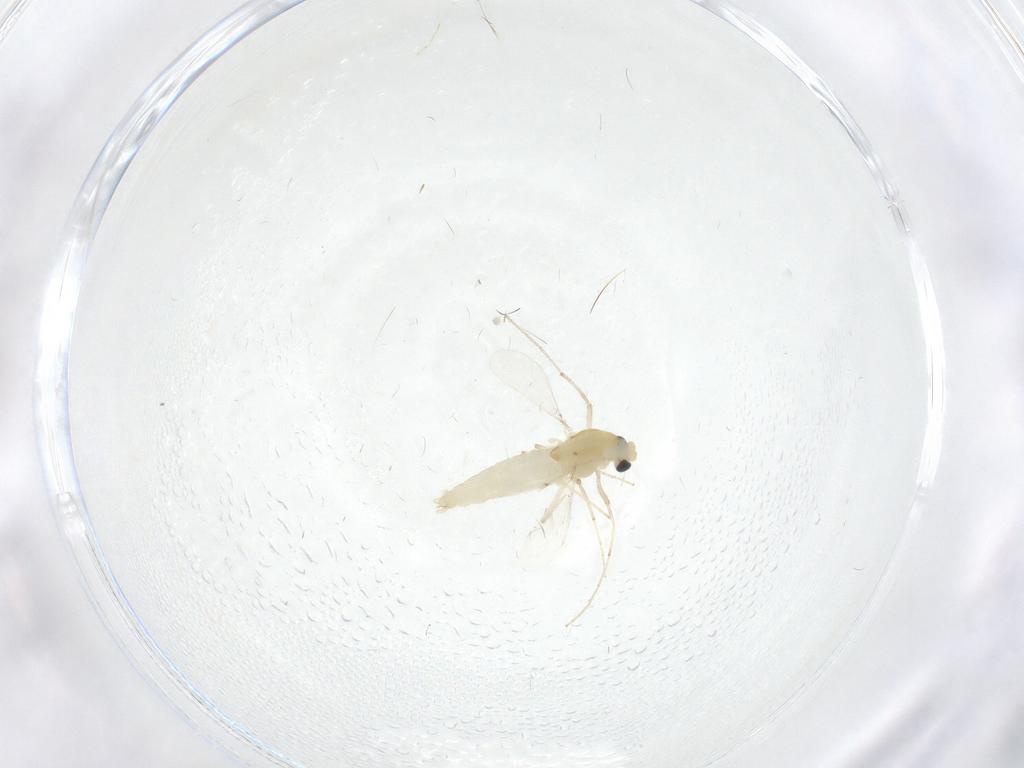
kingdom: Animalia
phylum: Arthropoda
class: Insecta
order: Diptera
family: Chironomidae
